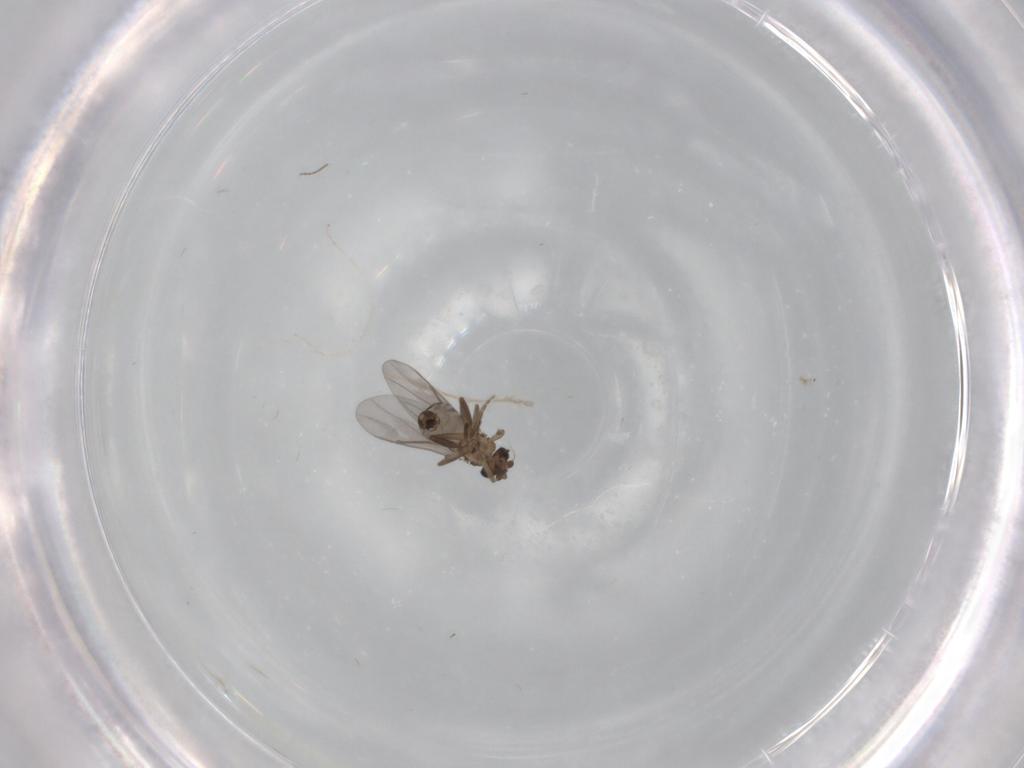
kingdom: Animalia
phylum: Arthropoda
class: Insecta
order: Diptera
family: Cecidomyiidae
